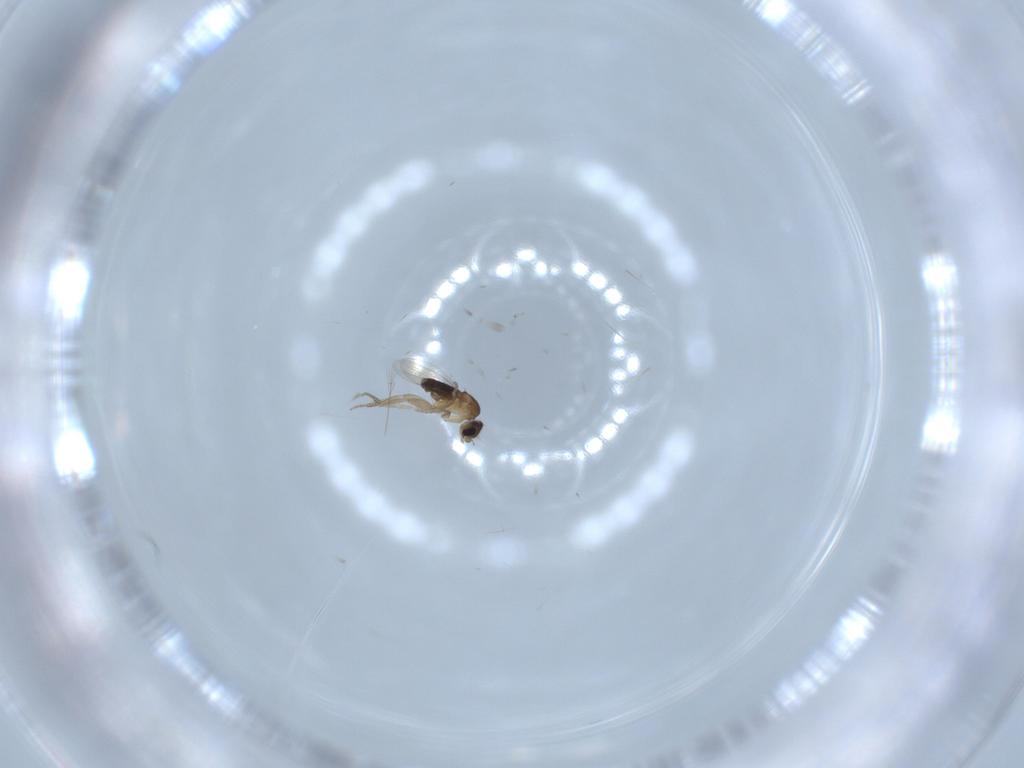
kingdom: Animalia
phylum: Arthropoda
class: Insecta
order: Diptera
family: Phoridae
